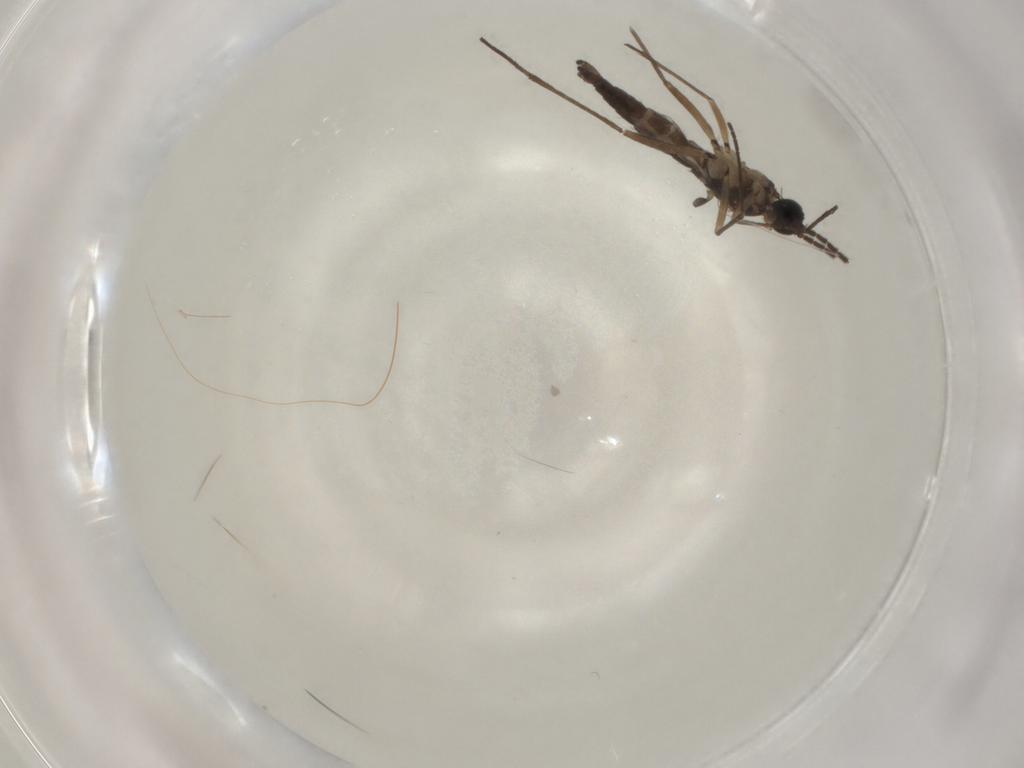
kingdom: Animalia
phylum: Arthropoda
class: Insecta
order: Diptera
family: Sciaridae
